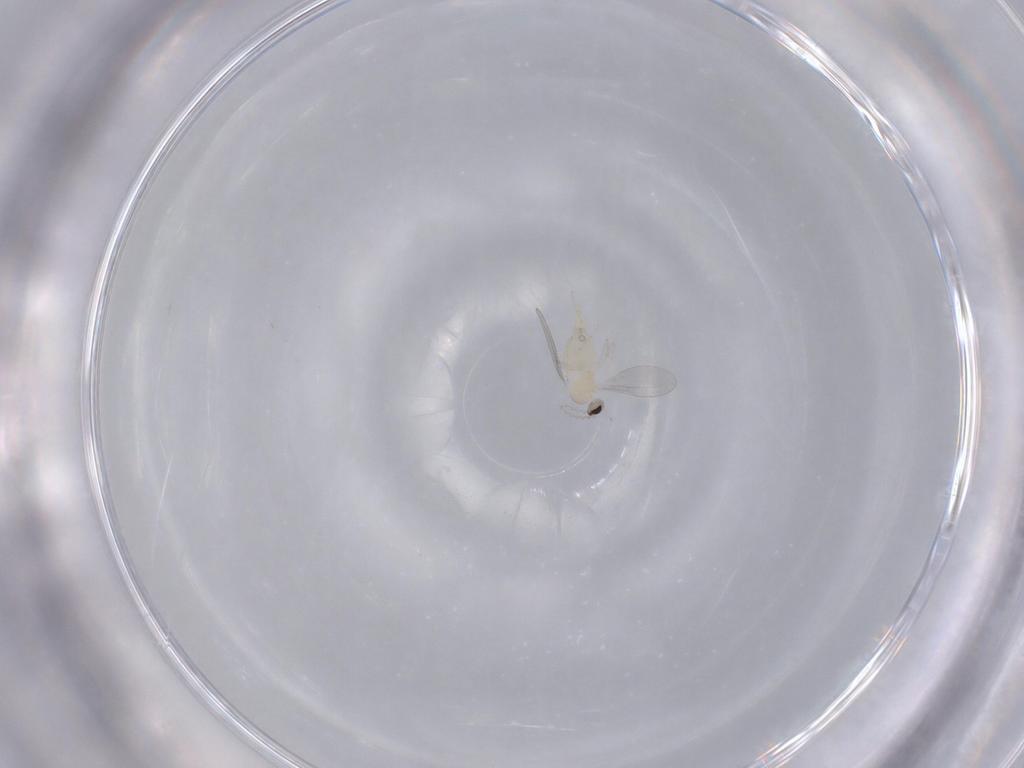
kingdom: Animalia
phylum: Arthropoda
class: Insecta
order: Diptera
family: Cecidomyiidae
